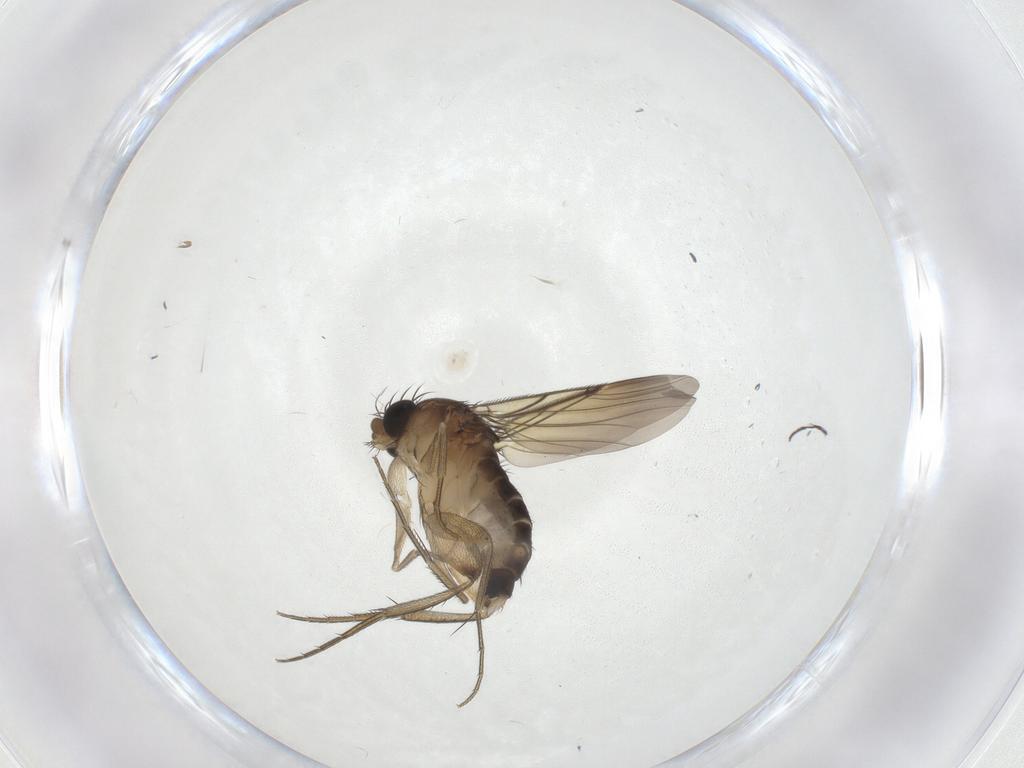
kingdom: Animalia
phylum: Arthropoda
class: Insecta
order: Diptera
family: Phoridae
